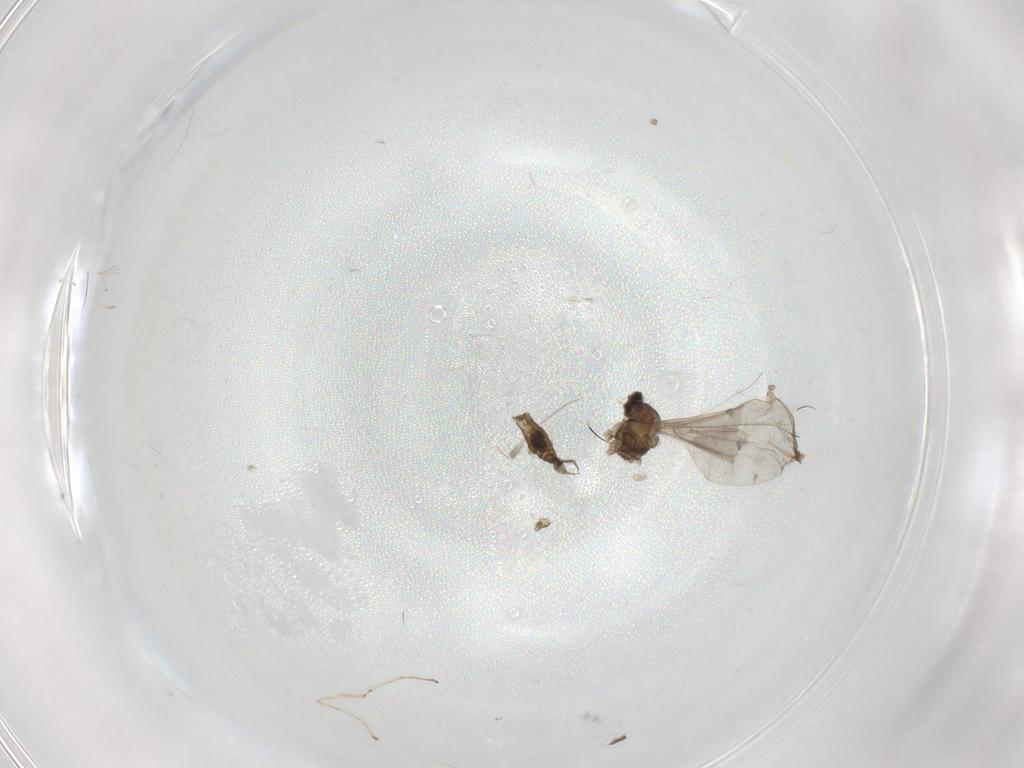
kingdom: Animalia
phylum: Arthropoda
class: Insecta
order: Diptera
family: Cecidomyiidae
